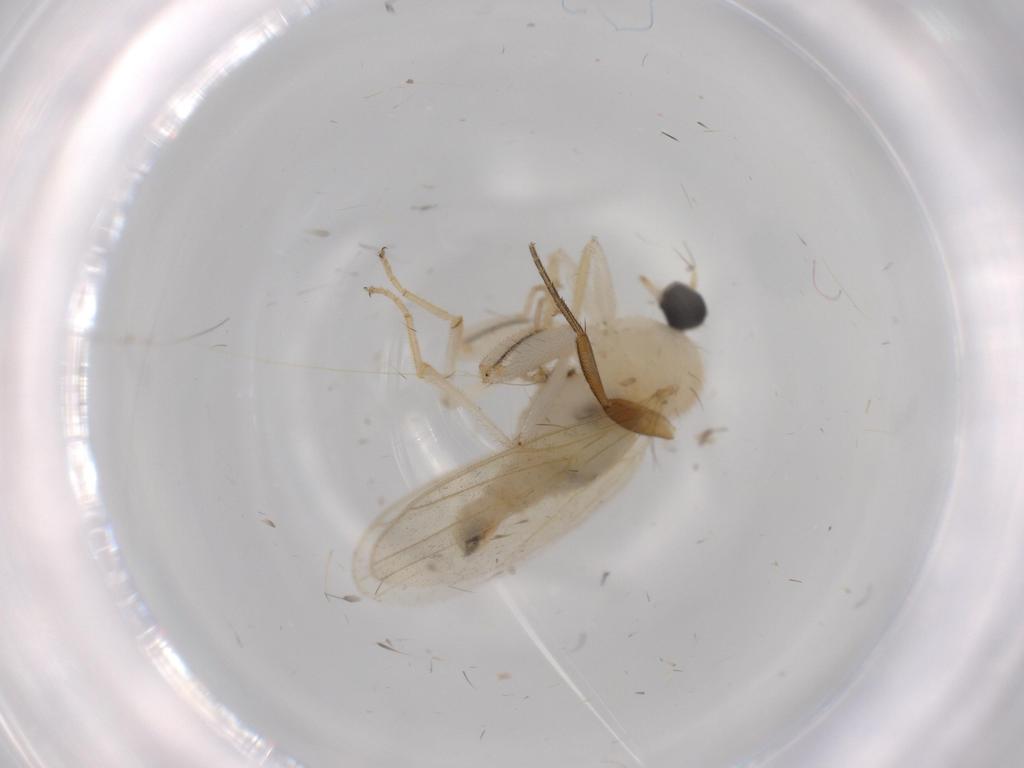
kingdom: Animalia
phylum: Arthropoda
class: Insecta
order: Diptera
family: Hybotidae
